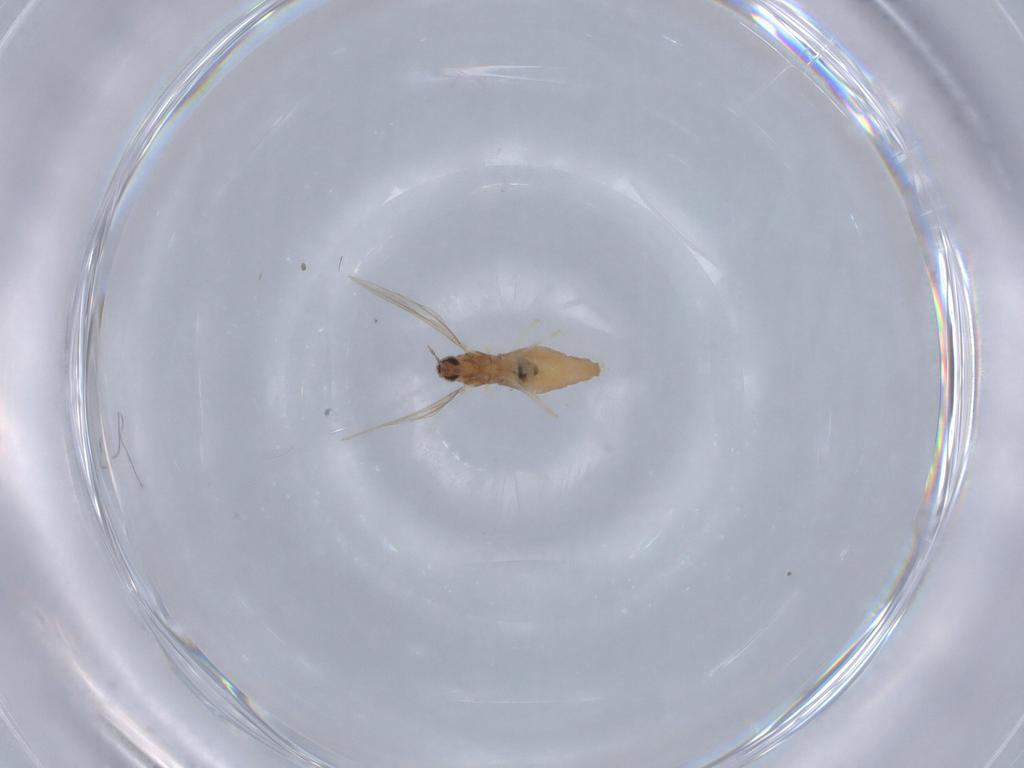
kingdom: Animalia
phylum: Arthropoda
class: Insecta
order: Diptera
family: Cecidomyiidae
